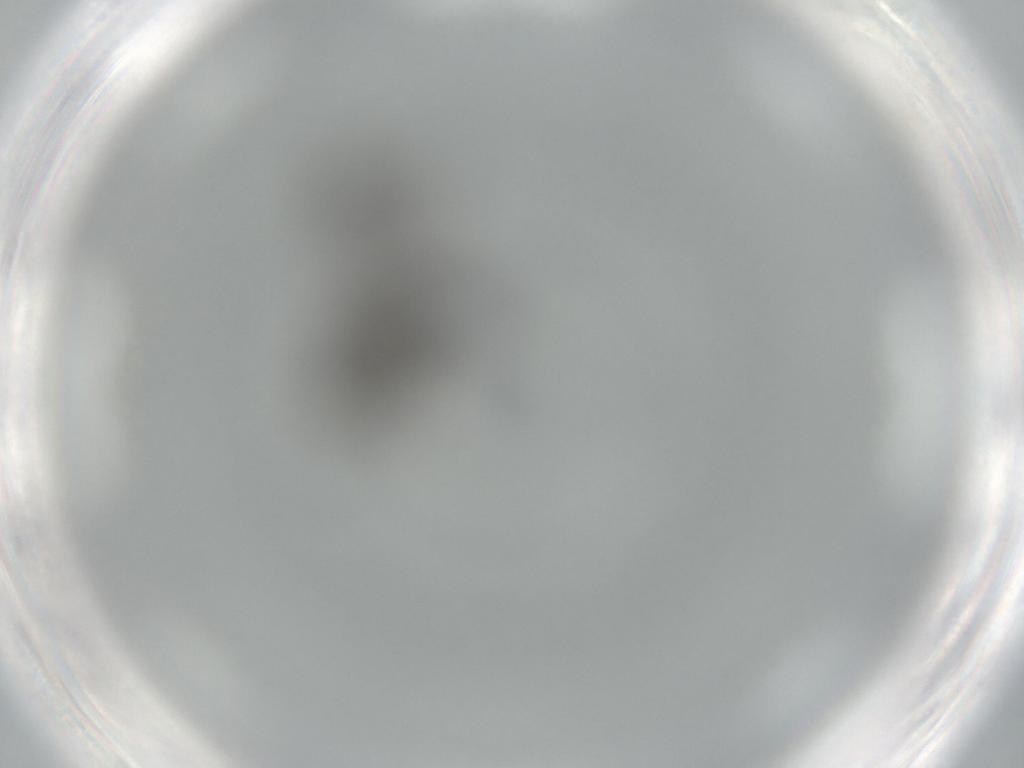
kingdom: Animalia
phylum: Arthropoda
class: Insecta
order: Diptera
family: Sciaridae
